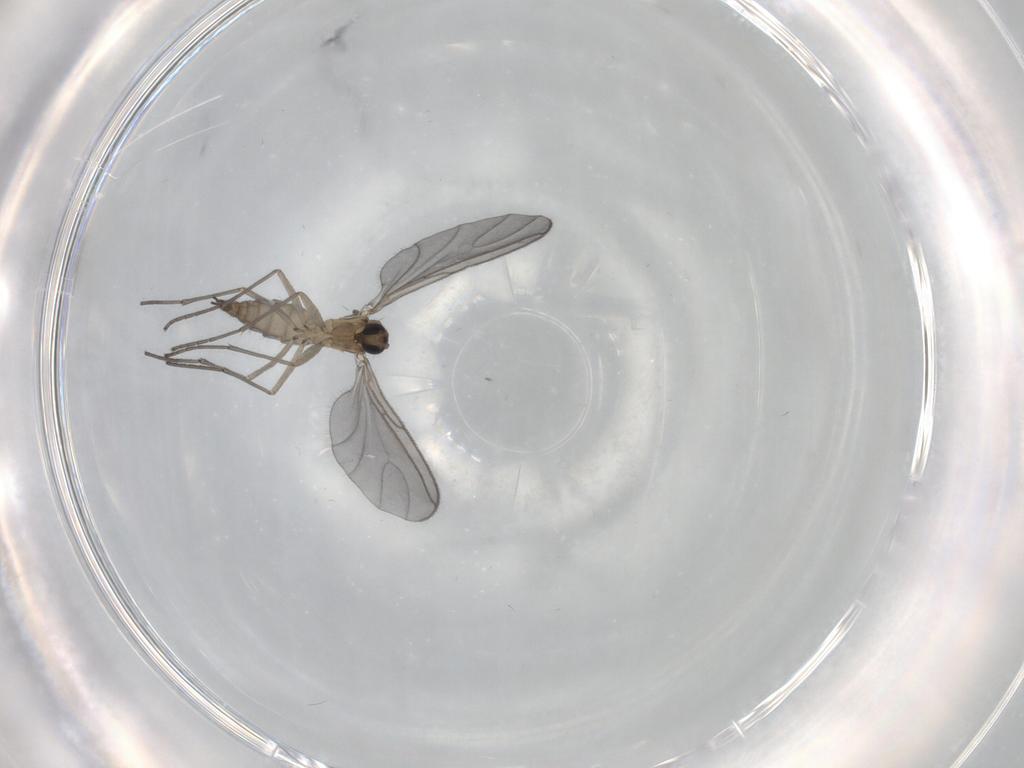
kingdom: Animalia
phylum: Arthropoda
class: Insecta
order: Diptera
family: Sciaridae
